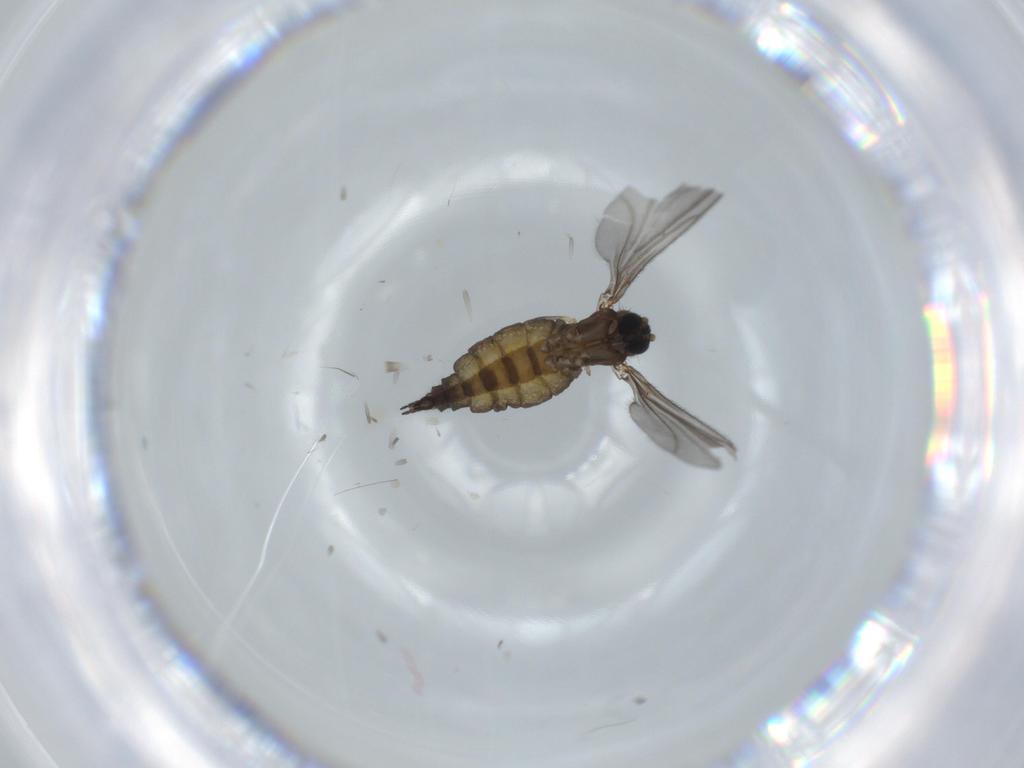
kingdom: Animalia
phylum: Arthropoda
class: Insecta
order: Diptera
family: Sciaridae
